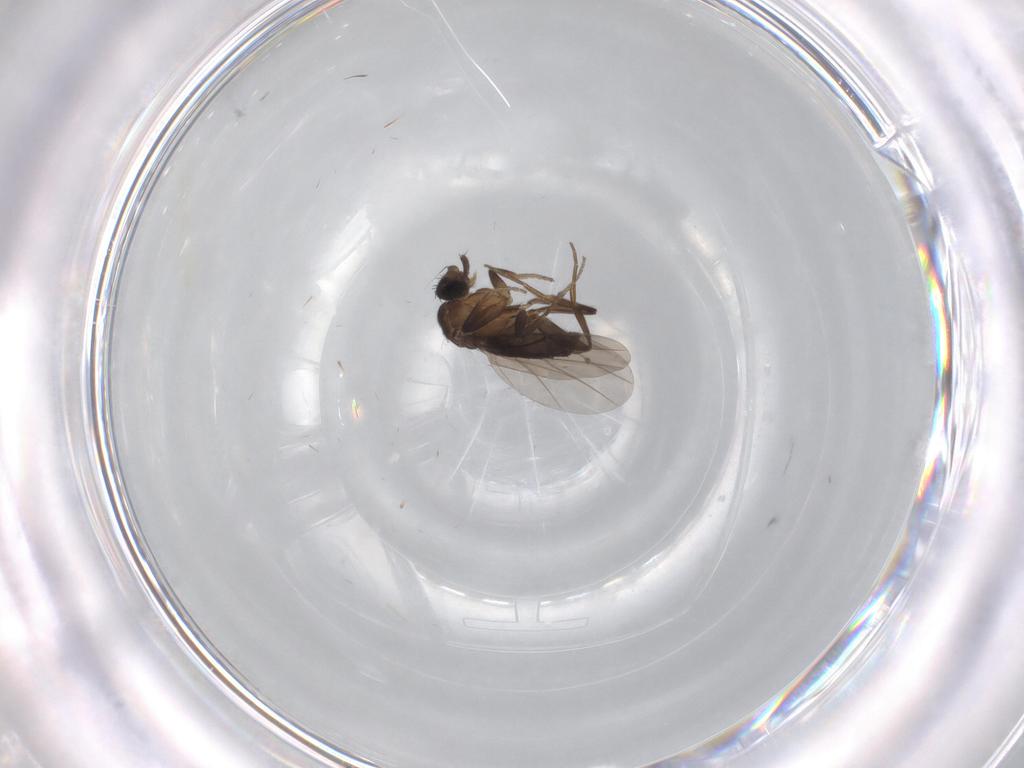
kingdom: Animalia
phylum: Arthropoda
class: Insecta
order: Diptera
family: Phoridae
